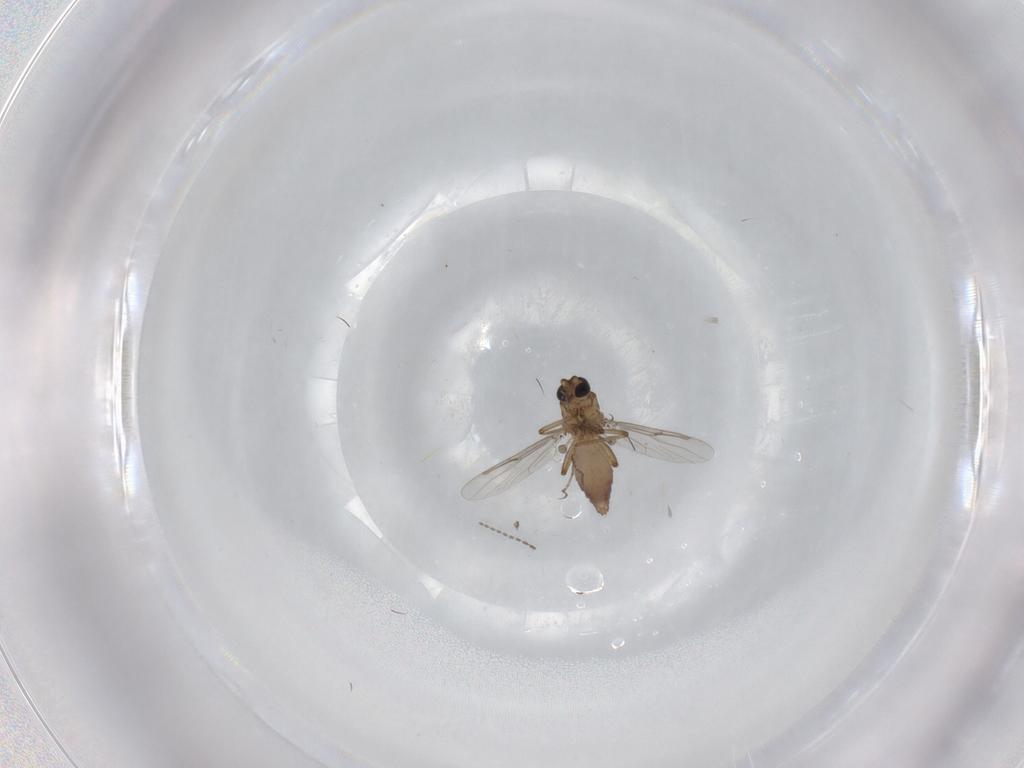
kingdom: Animalia
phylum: Arthropoda
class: Insecta
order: Diptera
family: Ceratopogonidae
